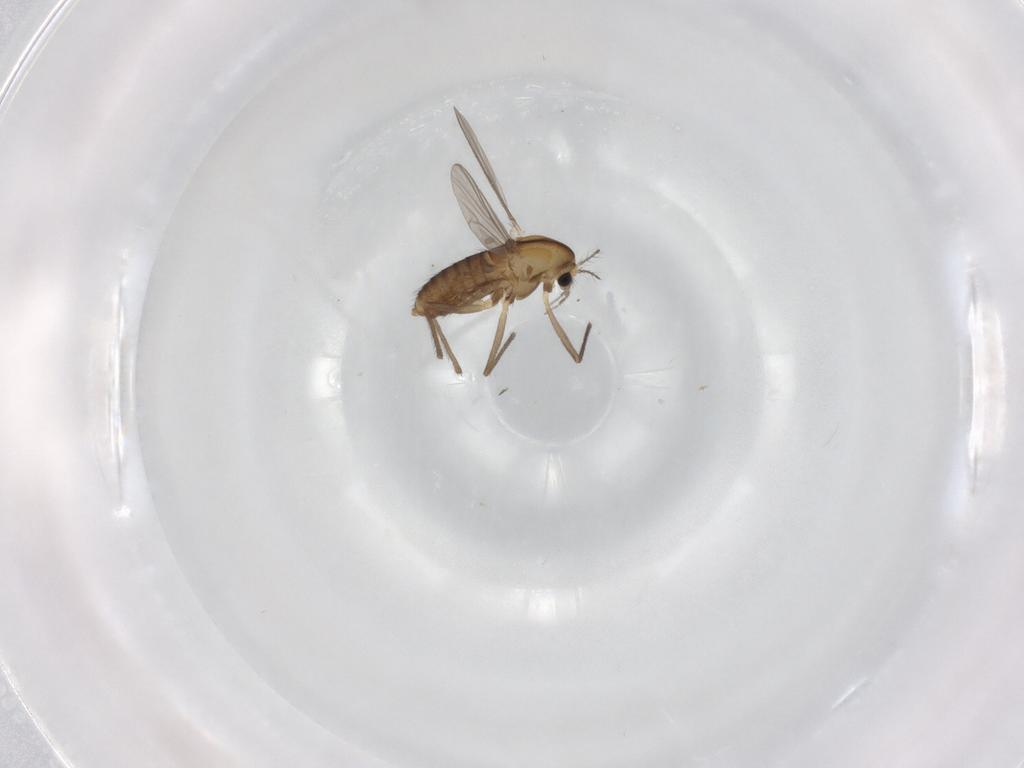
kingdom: Animalia
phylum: Arthropoda
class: Insecta
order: Diptera
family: Chironomidae
